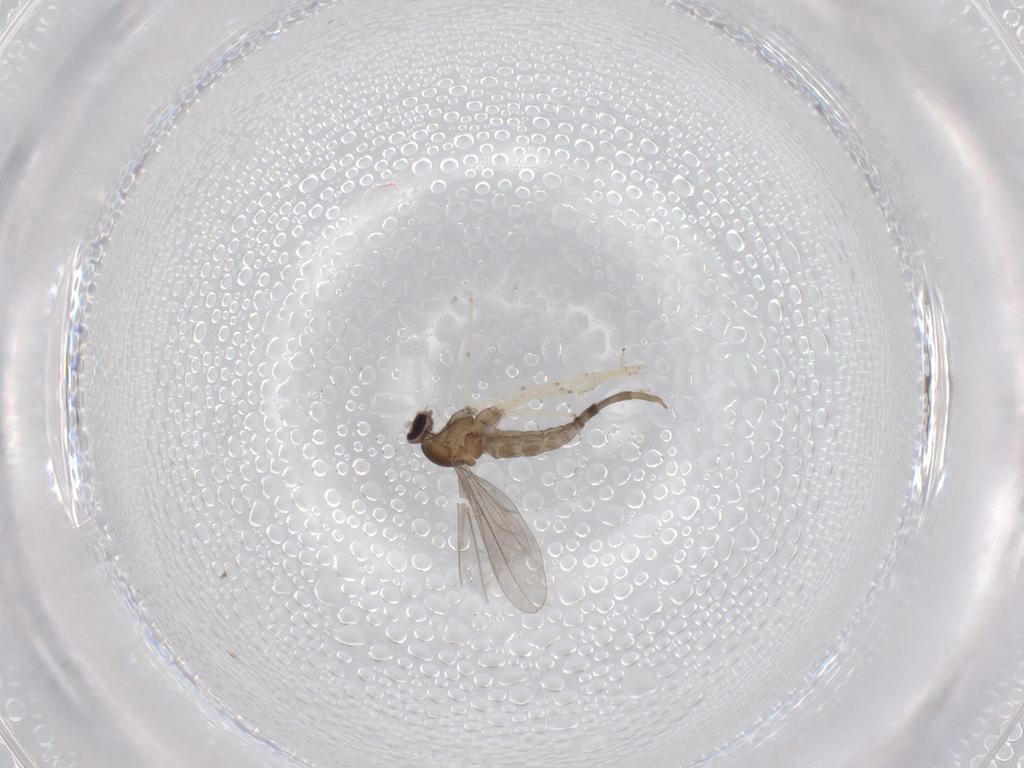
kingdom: Animalia
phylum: Arthropoda
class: Insecta
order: Diptera
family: Cecidomyiidae
